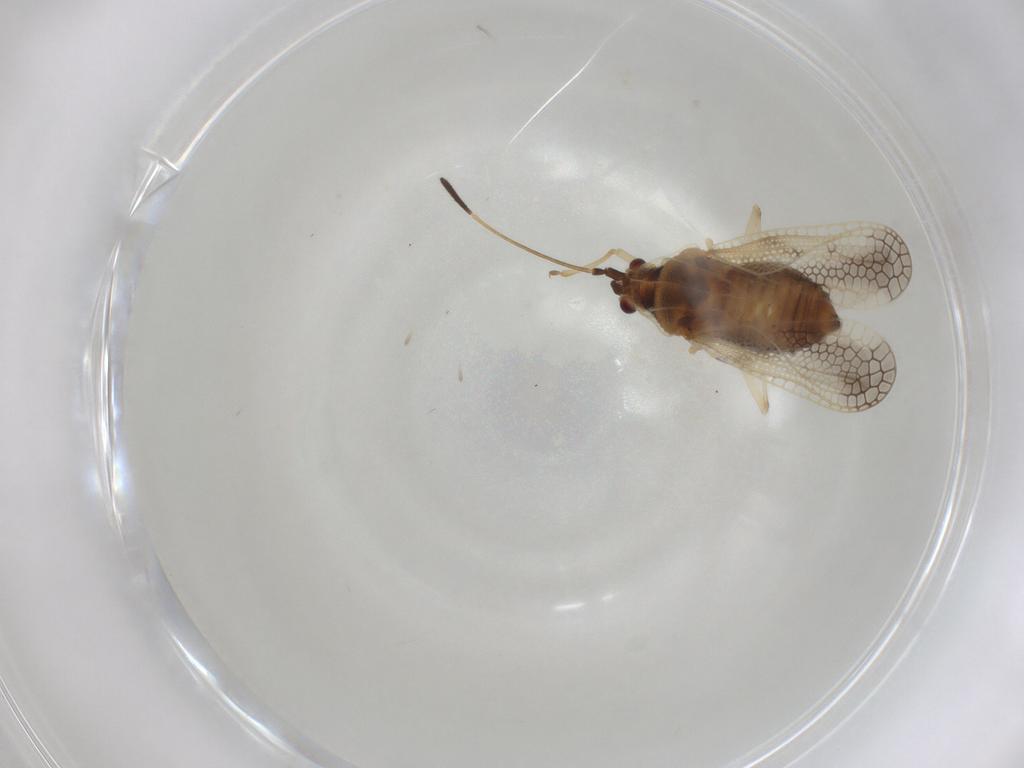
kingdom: Animalia
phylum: Arthropoda
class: Insecta
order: Hemiptera
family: Tingidae
